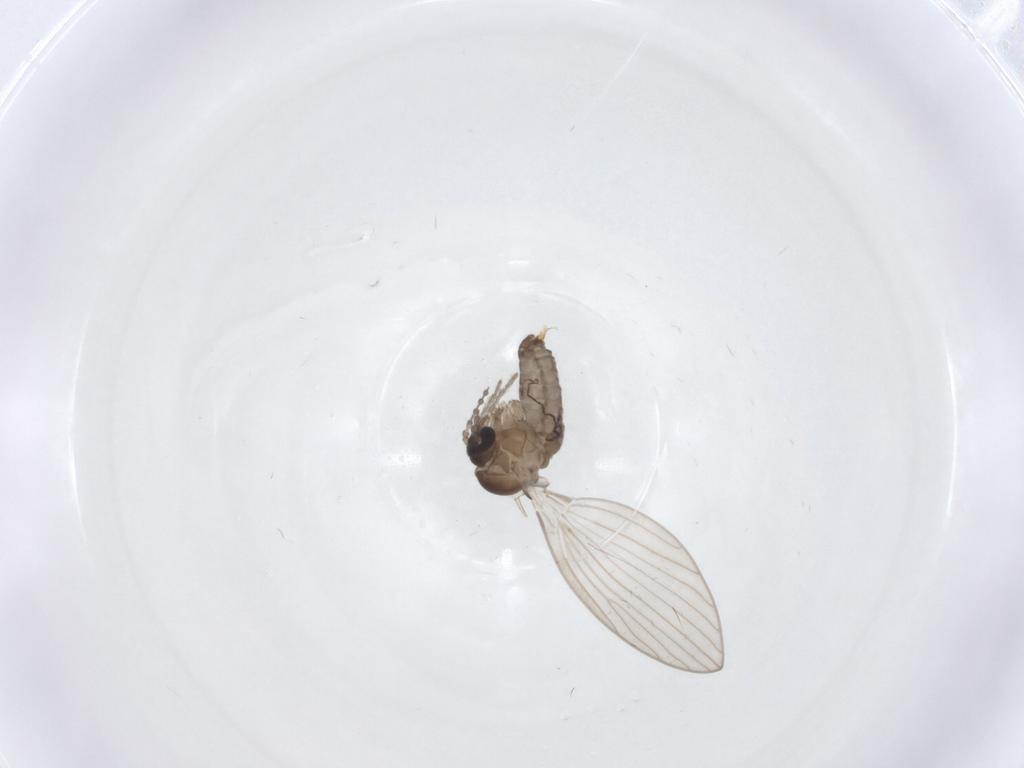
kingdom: Animalia
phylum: Arthropoda
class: Insecta
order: Diptera
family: Psychodidae
